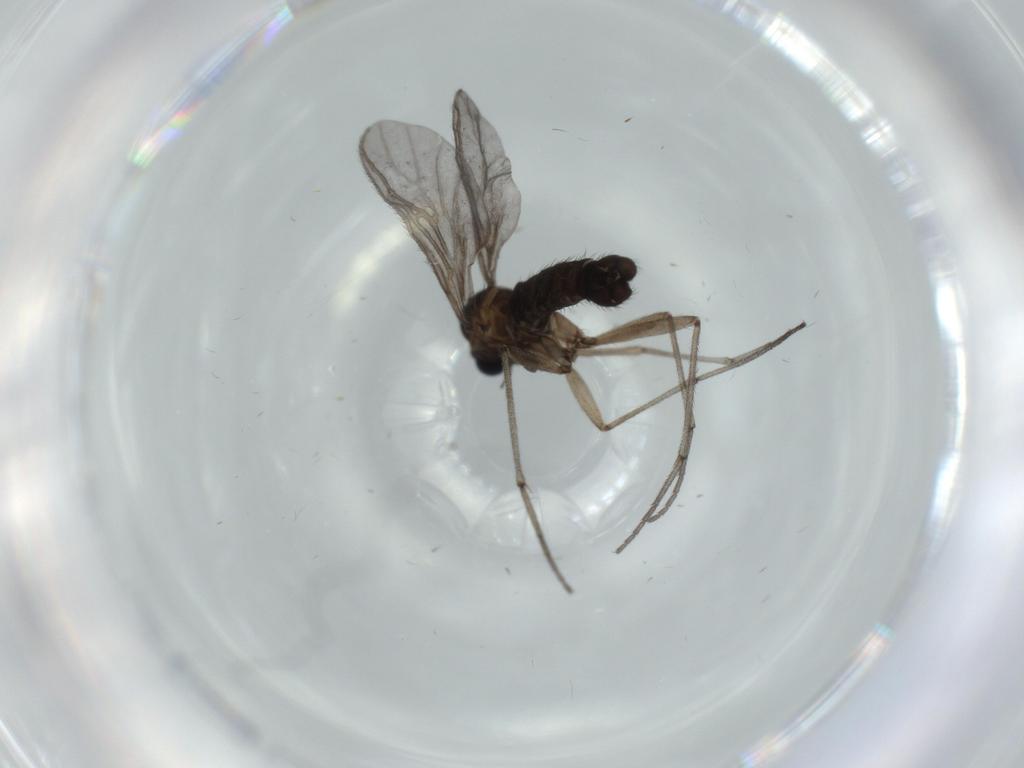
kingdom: Animalia
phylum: Arthropoda
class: Insecta
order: Diptera
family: Sciaridae
